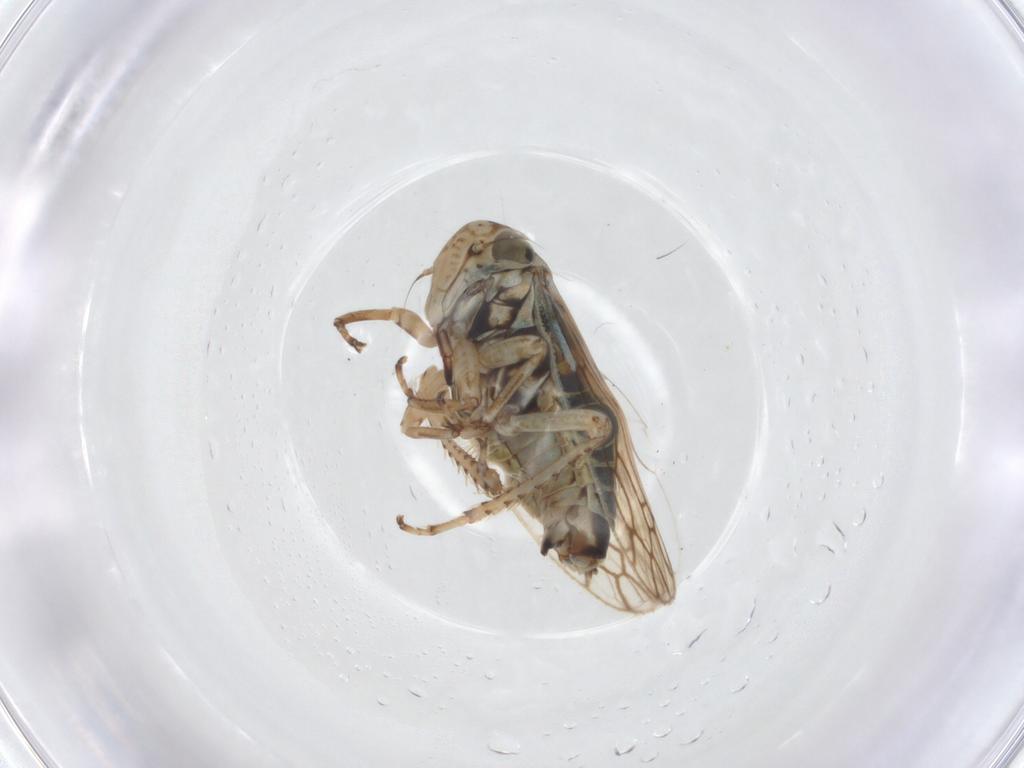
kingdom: Animalia
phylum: Arthropoda
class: Insecta
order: Hemiptera
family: Cicadellidae
